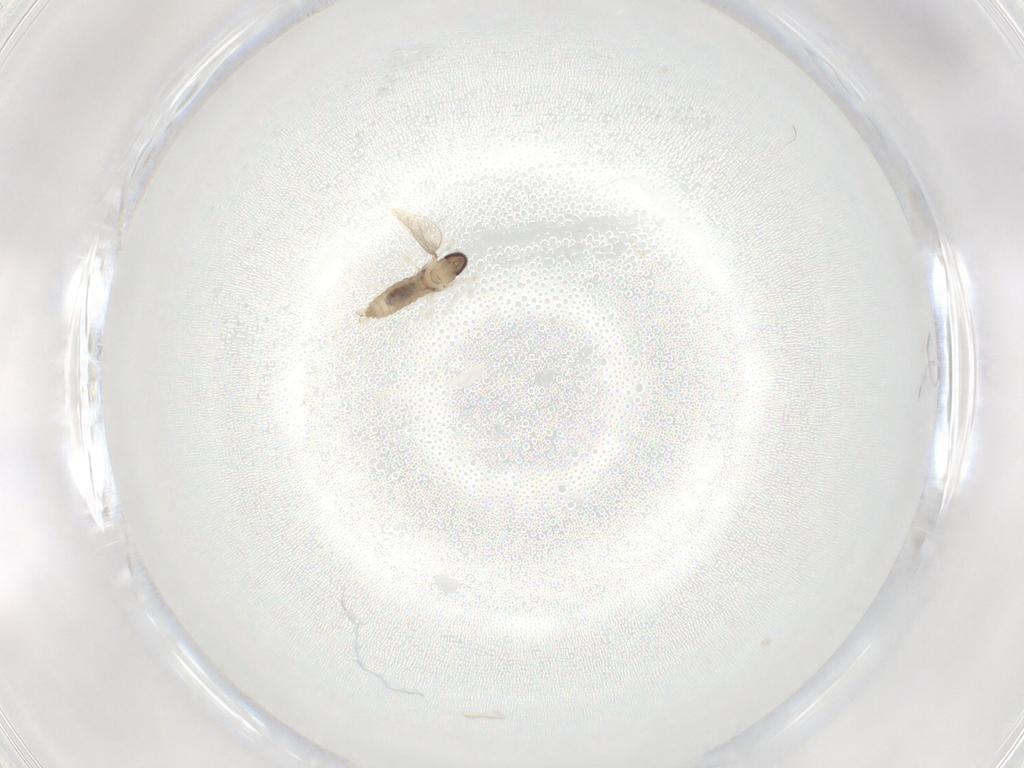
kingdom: Animalia
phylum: Arthropoda
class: Insecta
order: Diptera
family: Cecidomyiidae
